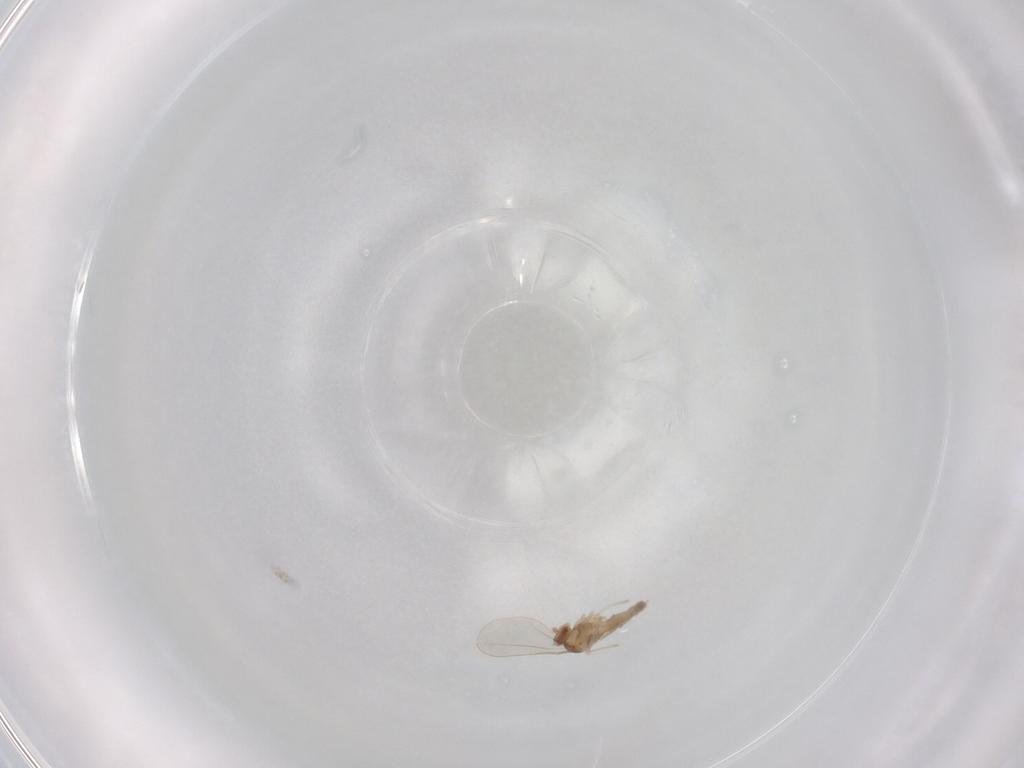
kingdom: Animalia
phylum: Arthropoda
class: Insecta
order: Diptera
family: Cecidomyiidae
